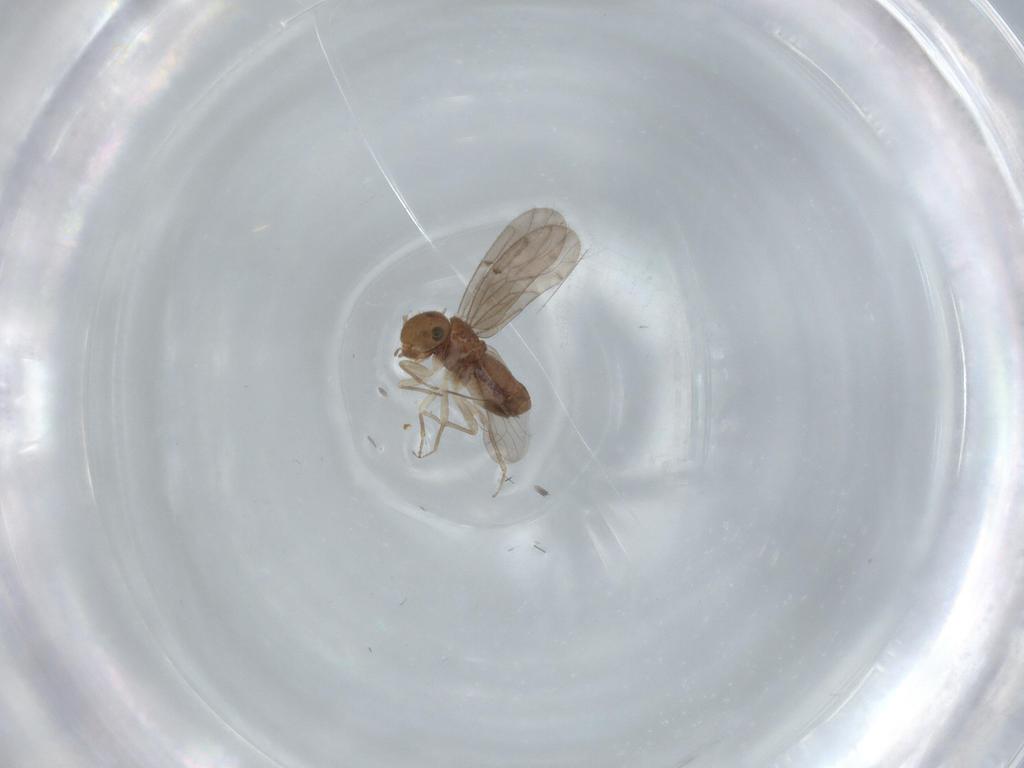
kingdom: Animalia
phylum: Arthropoda
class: Insecta
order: Psocodea
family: Ectopsocidae
